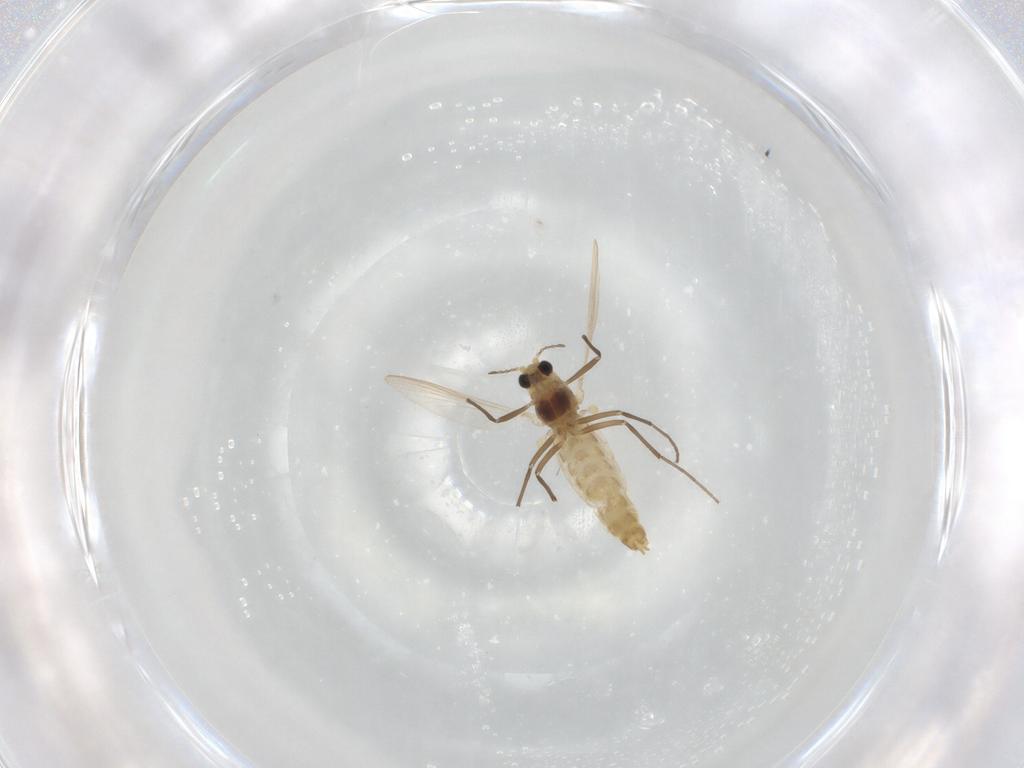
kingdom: Animalia
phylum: Arthropoda
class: Insecta
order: Diptera
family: Chironomidae
